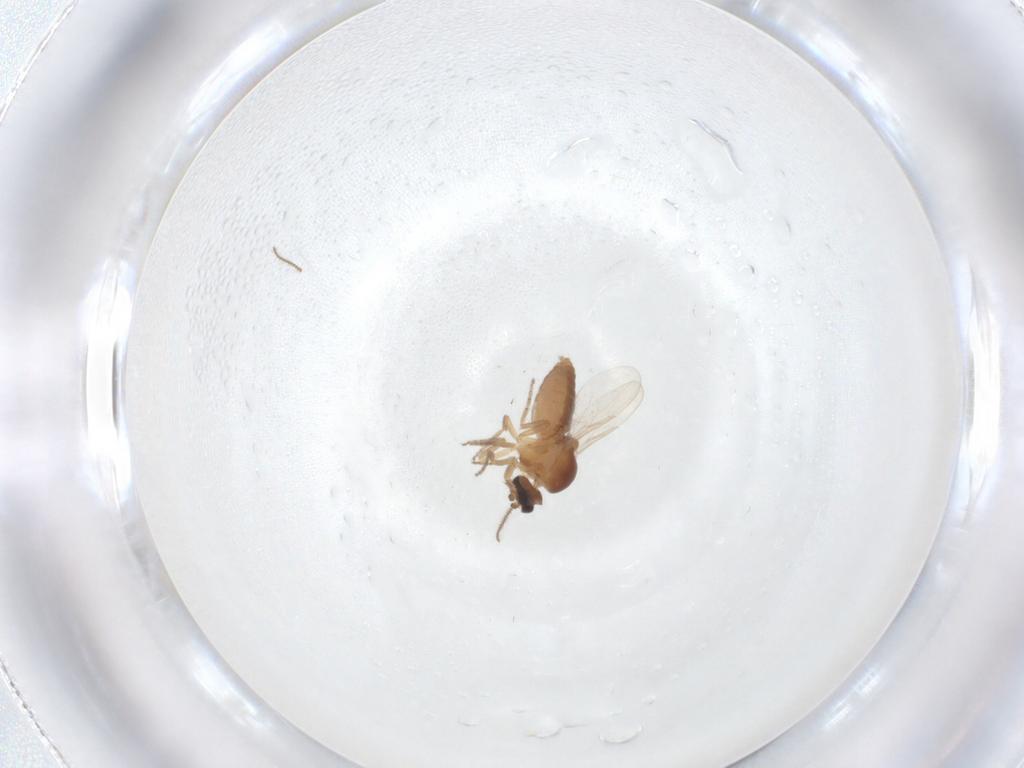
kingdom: Animalia
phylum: Arthropoda
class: Insecta
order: Diptera
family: Ceratopogonidae
